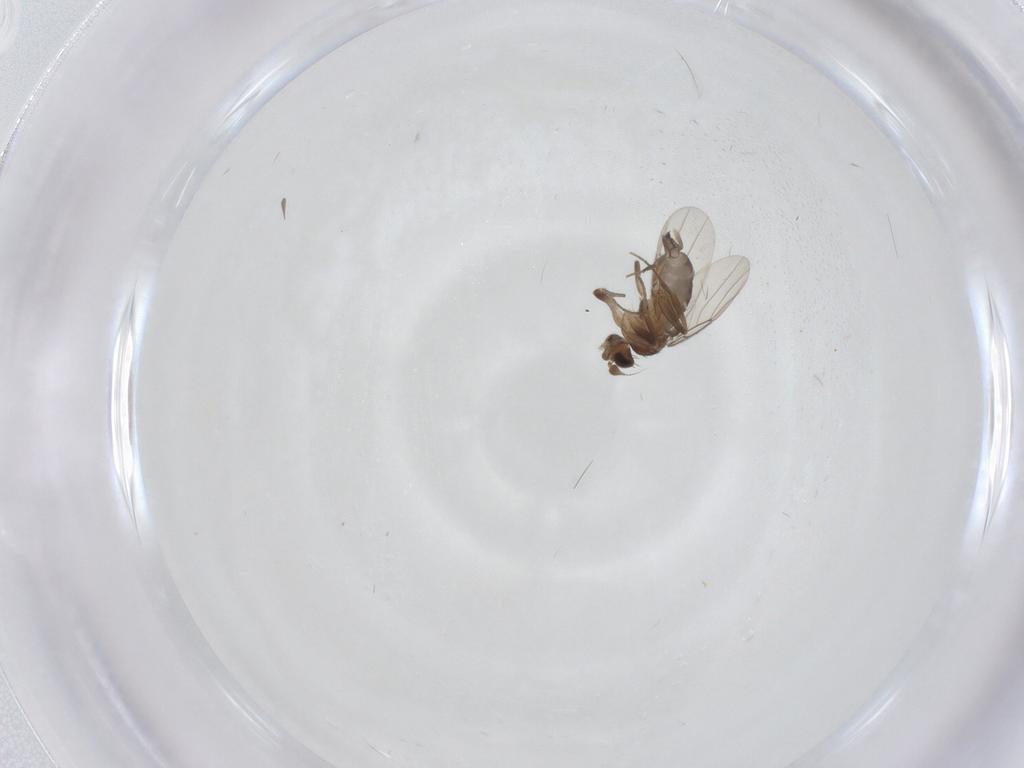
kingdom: Animalia
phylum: Arthropoda
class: Insecta
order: Diptera
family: Phoridae
